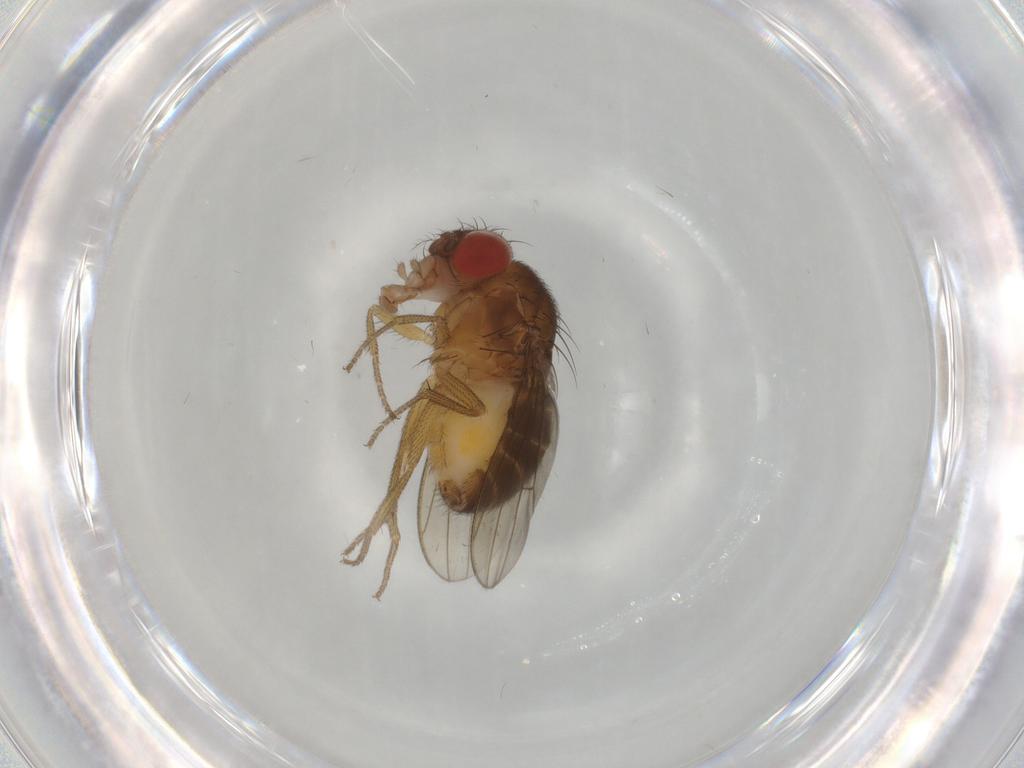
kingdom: Animalia
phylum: Arthropoda
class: Insecta
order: Diptera
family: Drosophilidae
